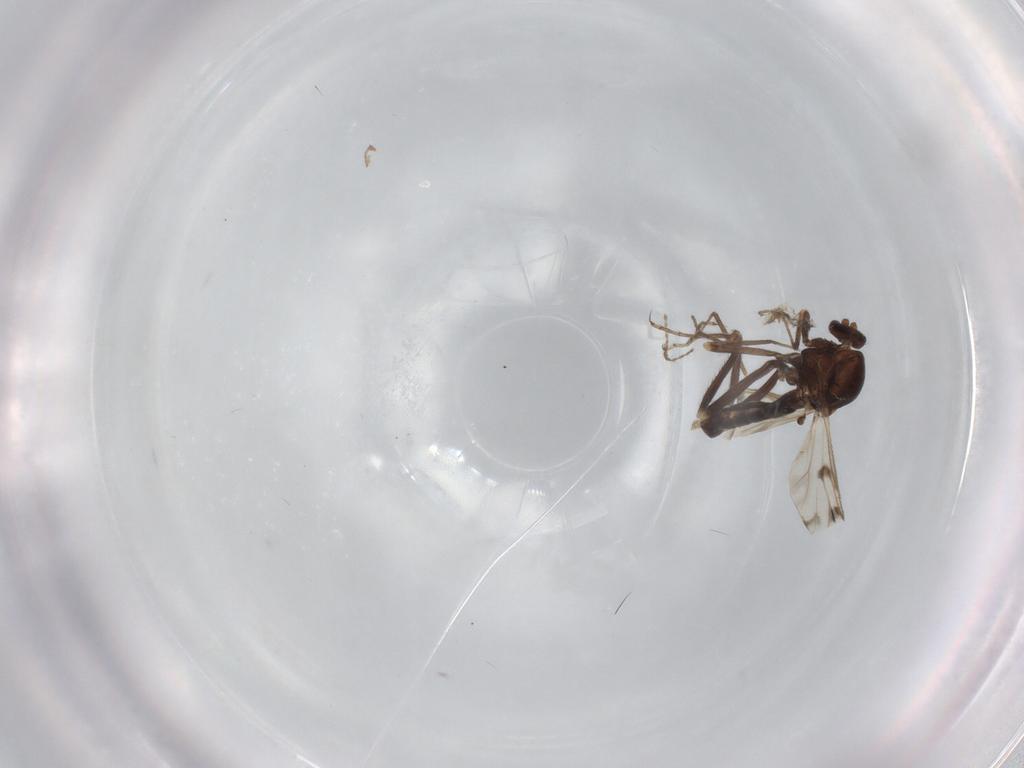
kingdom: Animalia
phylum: Arthropoda
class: Insecta
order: Diptera
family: Ceratopogonidae
